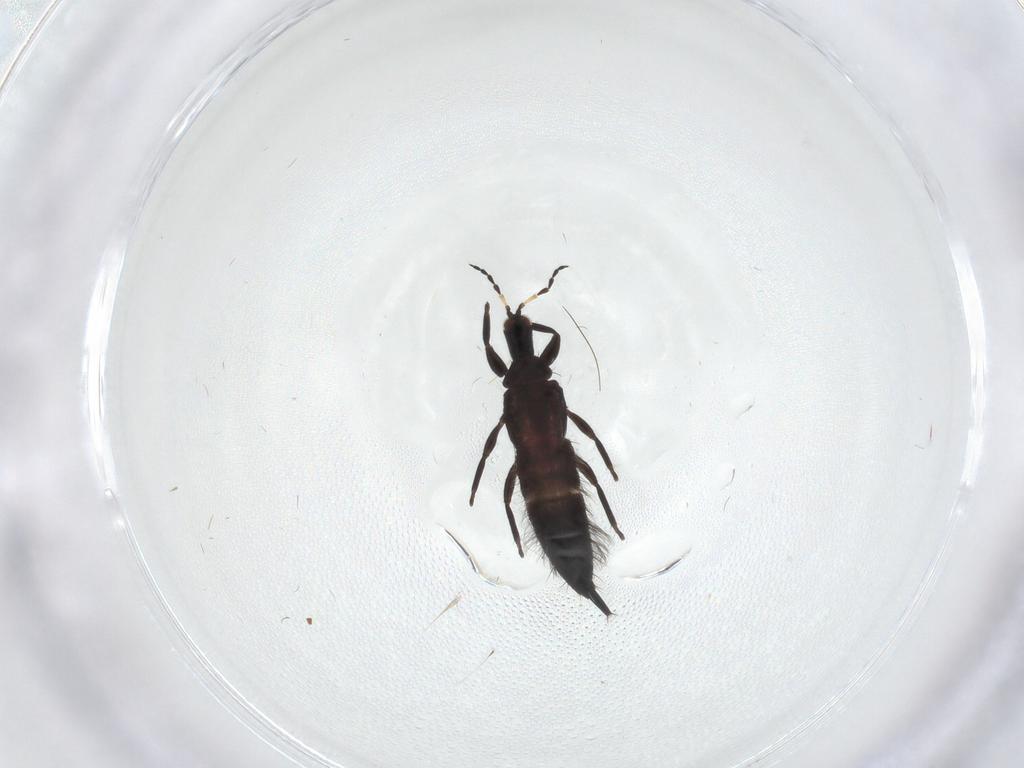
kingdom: Animalia
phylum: Arthropoda
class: Insecta
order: Thysanoptera
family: Phlaeothripidae
